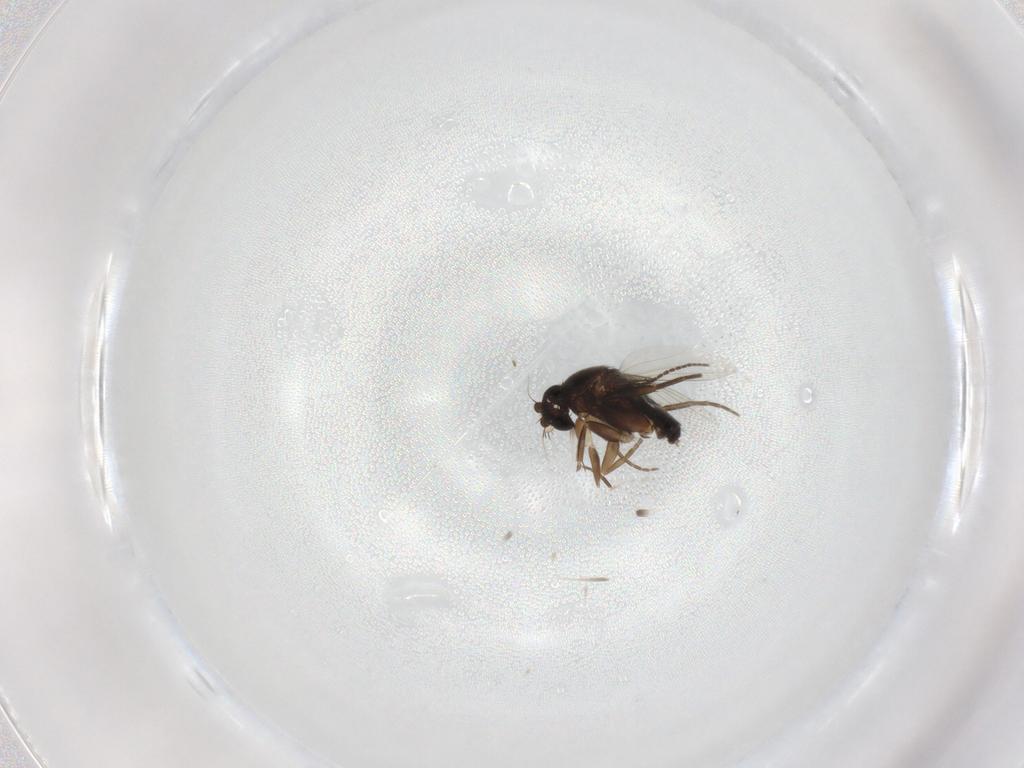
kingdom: Animalia
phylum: Arthropoda
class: Insecta
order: Diptera
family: Phoridae
